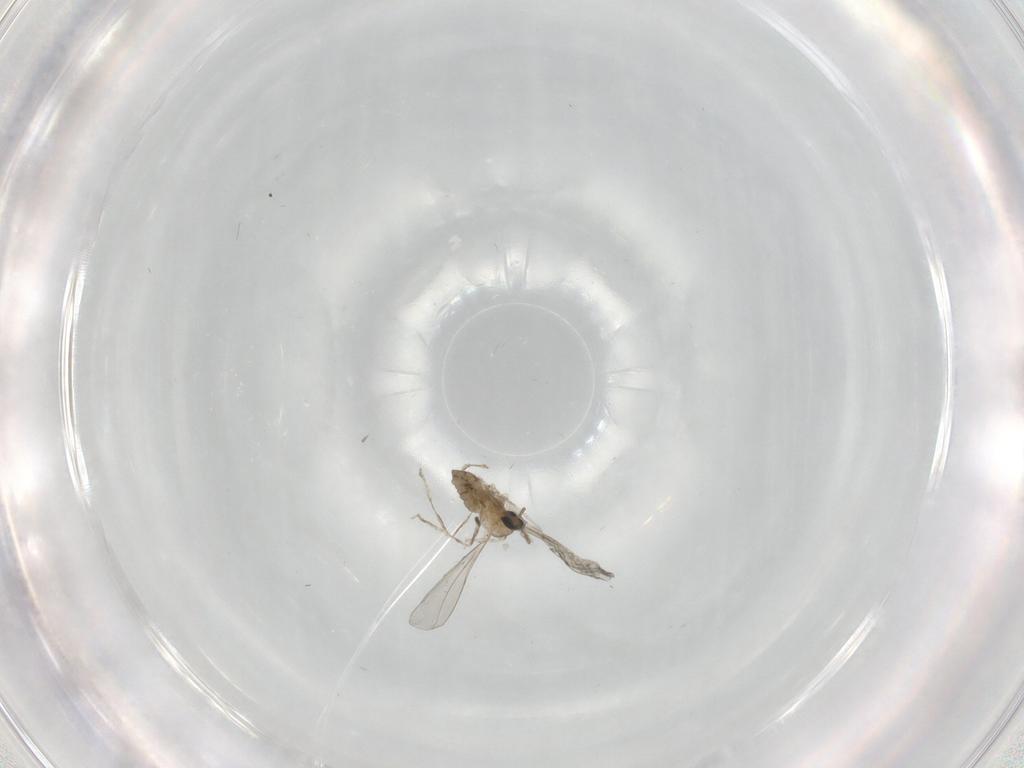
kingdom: Animalia
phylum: Arthropoda
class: Insecta
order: Diptera
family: Cecidomyiidae
